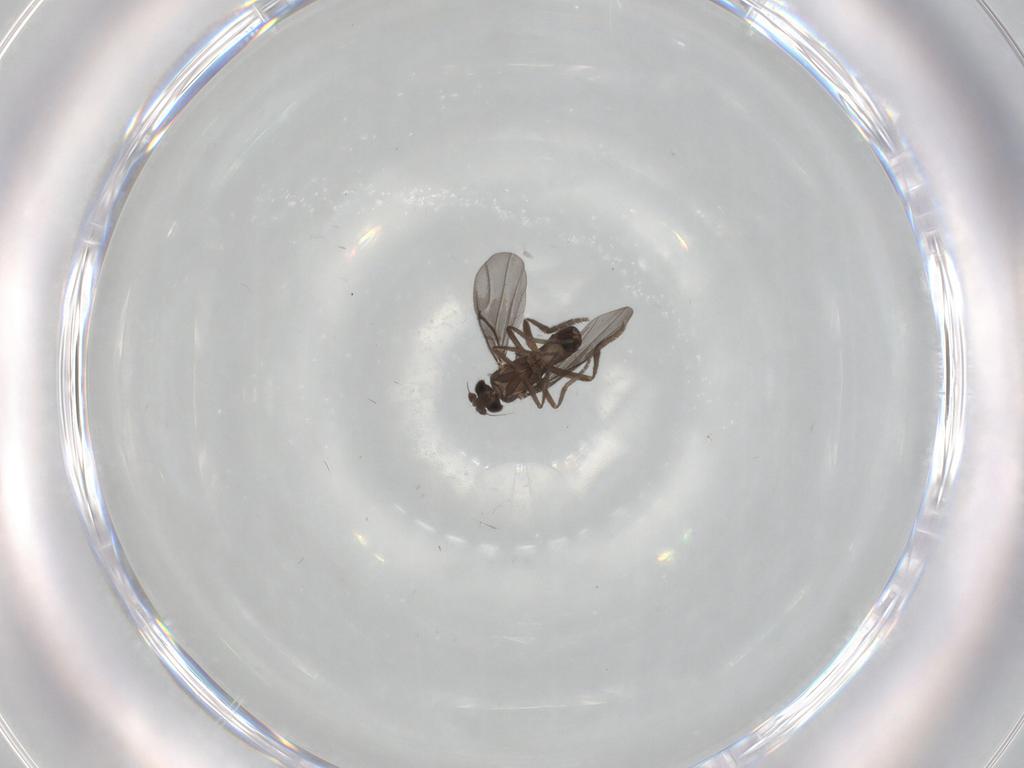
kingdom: Animalia
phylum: Arthropoda
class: Insecta
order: Diptera
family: Phoridae
